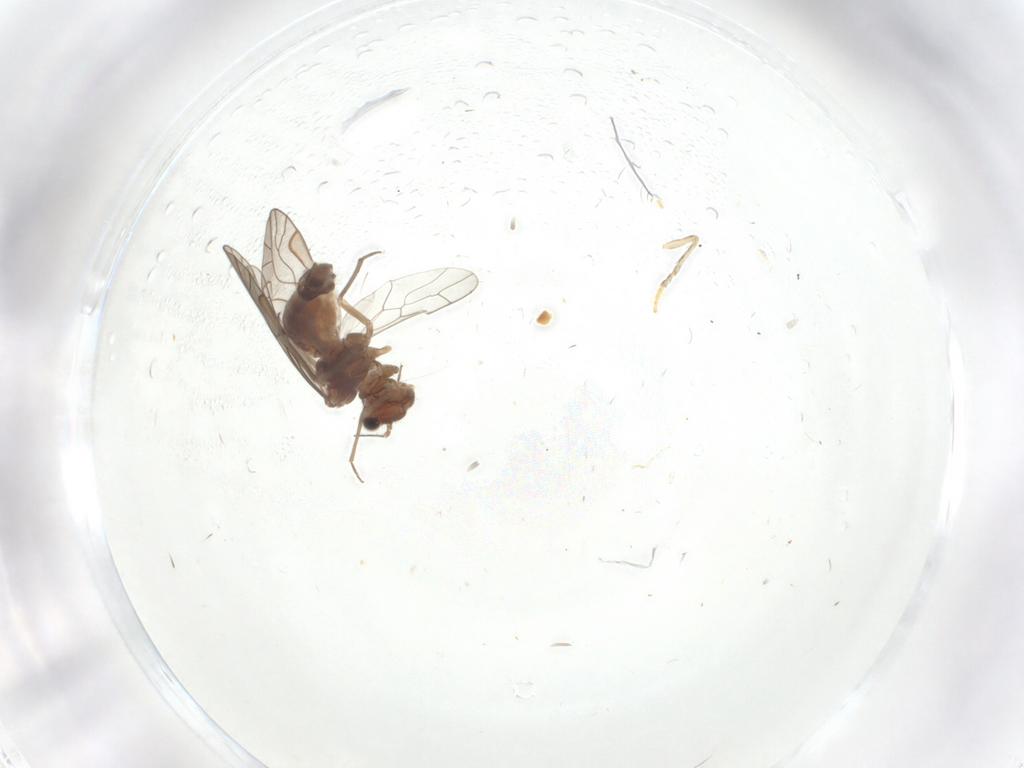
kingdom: Animalia
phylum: Arthropoda
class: Insecta
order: Psocodea
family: Lachesillidae
